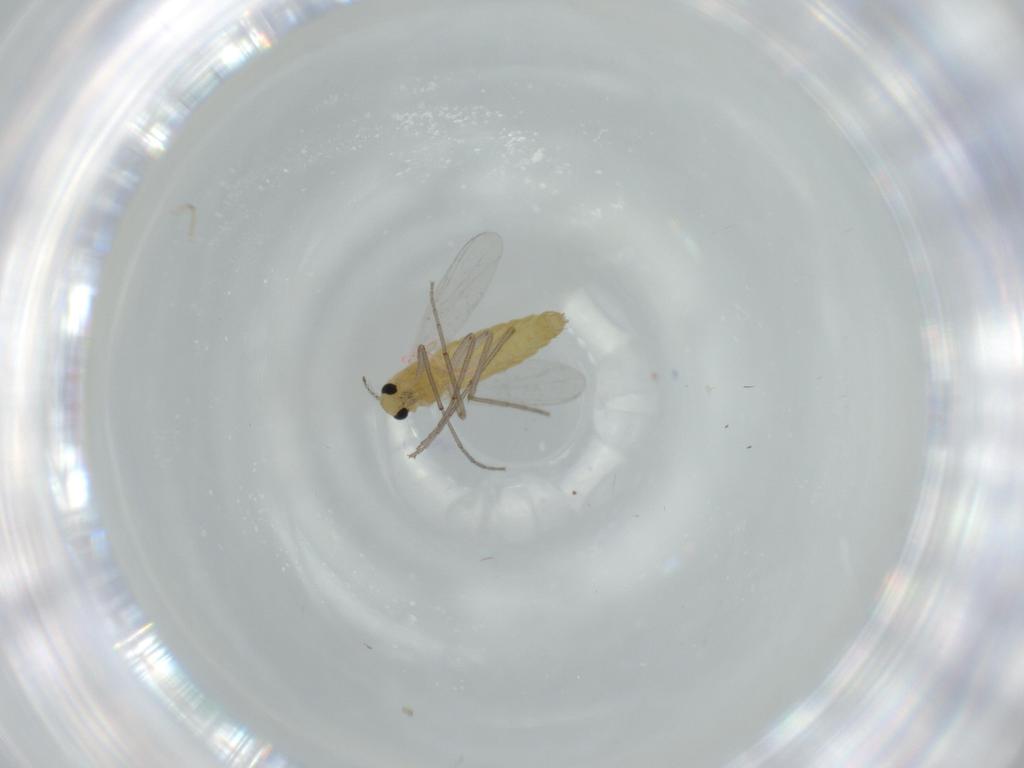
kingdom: Animalia
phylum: Arthropoda
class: Insecta
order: Diptera
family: Chironomidae
